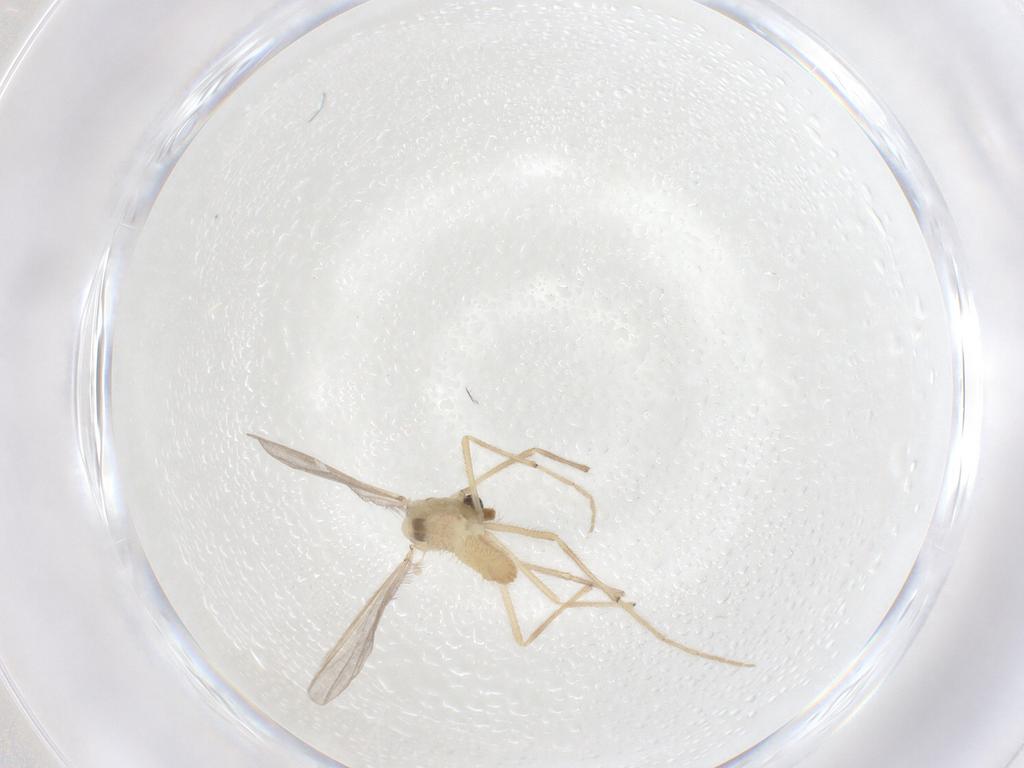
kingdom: Animalia
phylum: Arthropoda
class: Insecta
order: Diptera
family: Chironomidae
